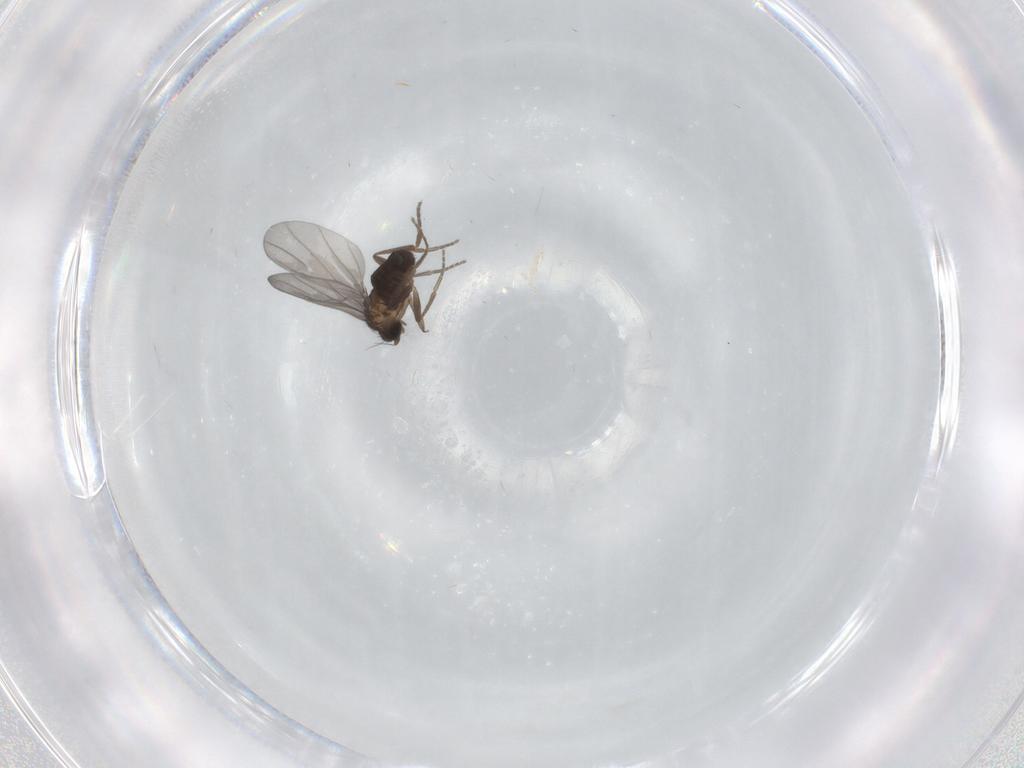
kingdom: Animalia
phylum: Arthropoda
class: Insecta
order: Diptera
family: Phoridae
